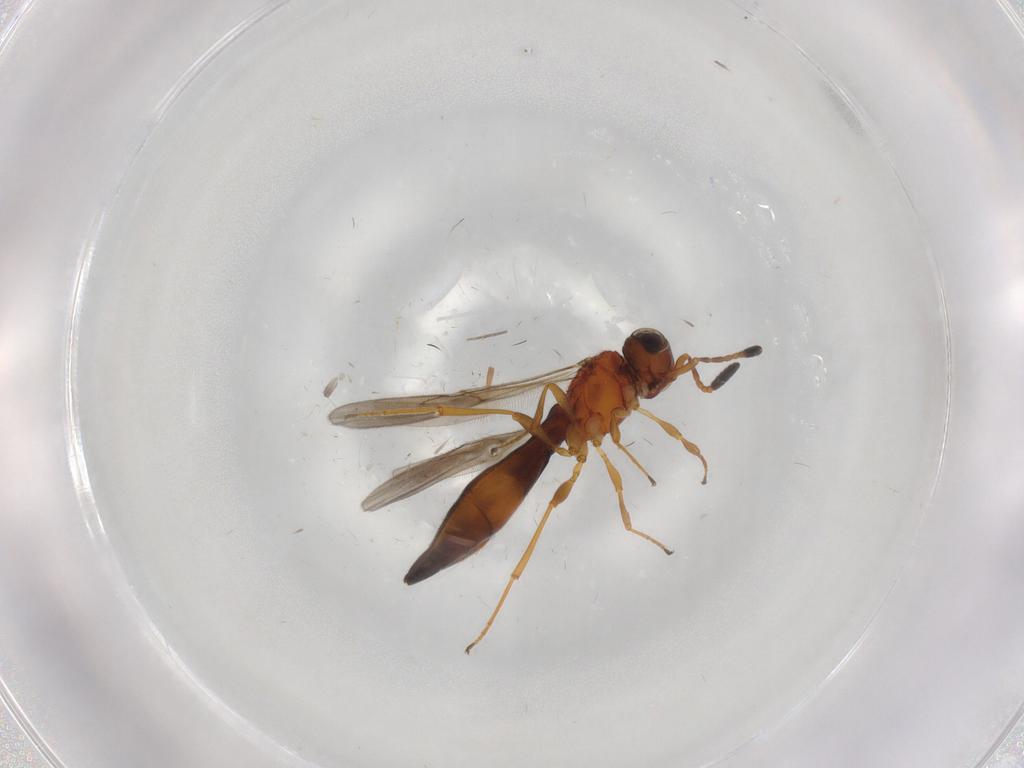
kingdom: Animalia
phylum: Arthropoda
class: Insecta
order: Hymenoptera
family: Scelionidae
